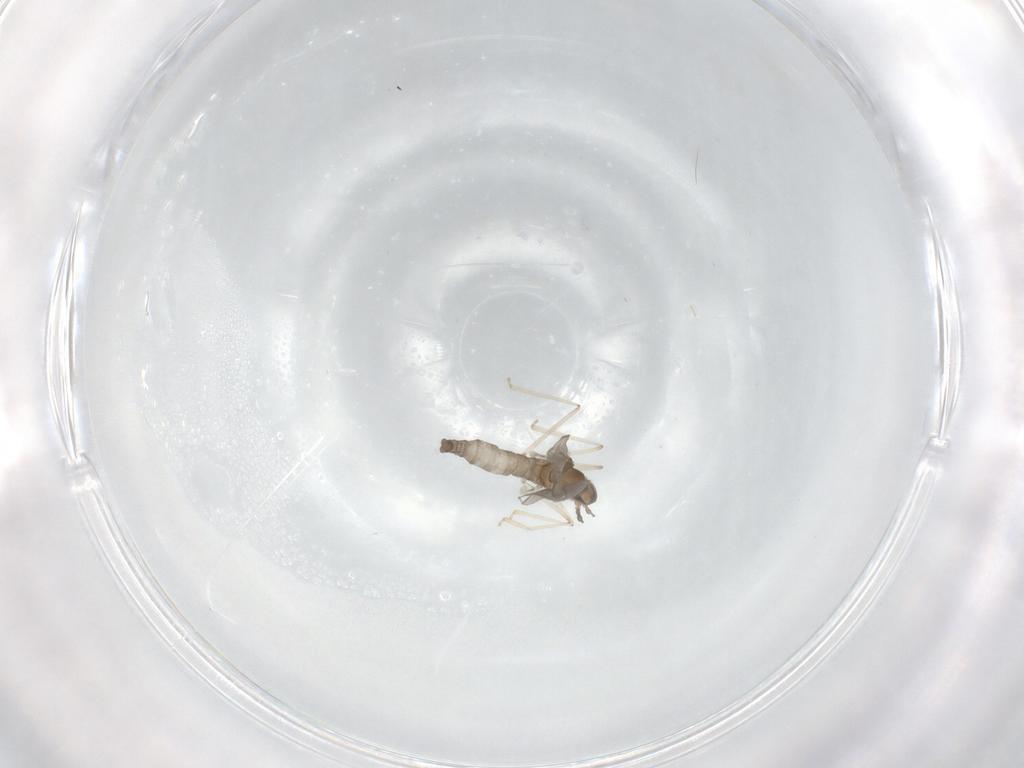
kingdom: Animalia
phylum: Arthropoda
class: Insecta
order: Diptera
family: Cecidomyiidae
